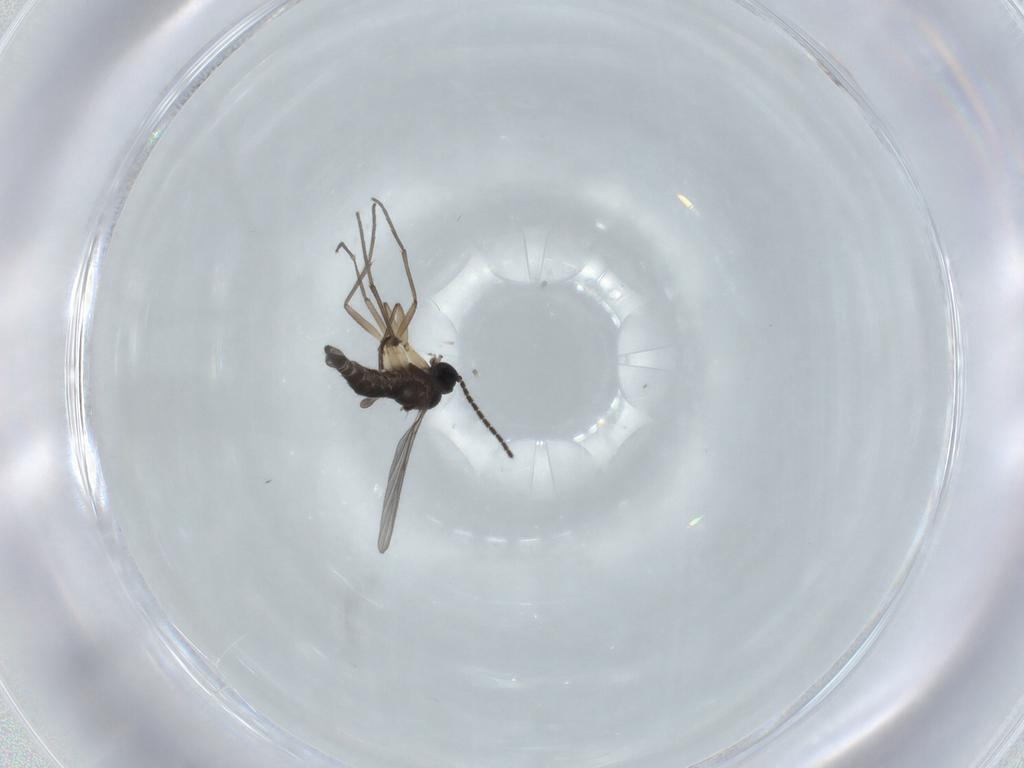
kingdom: Animalia
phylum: Arthropoda
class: Insecta
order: Diptera
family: Sciaridae
